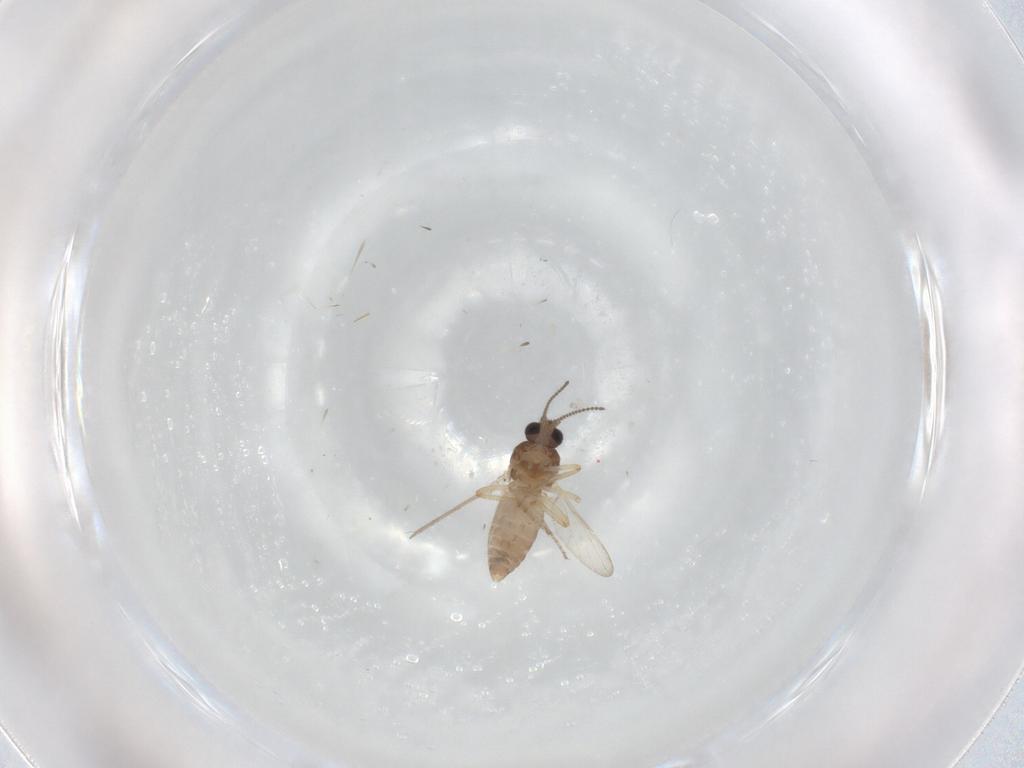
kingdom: Animalia
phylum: Arthropoda
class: Insecta
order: Diptera
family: Ceratopogonidae
